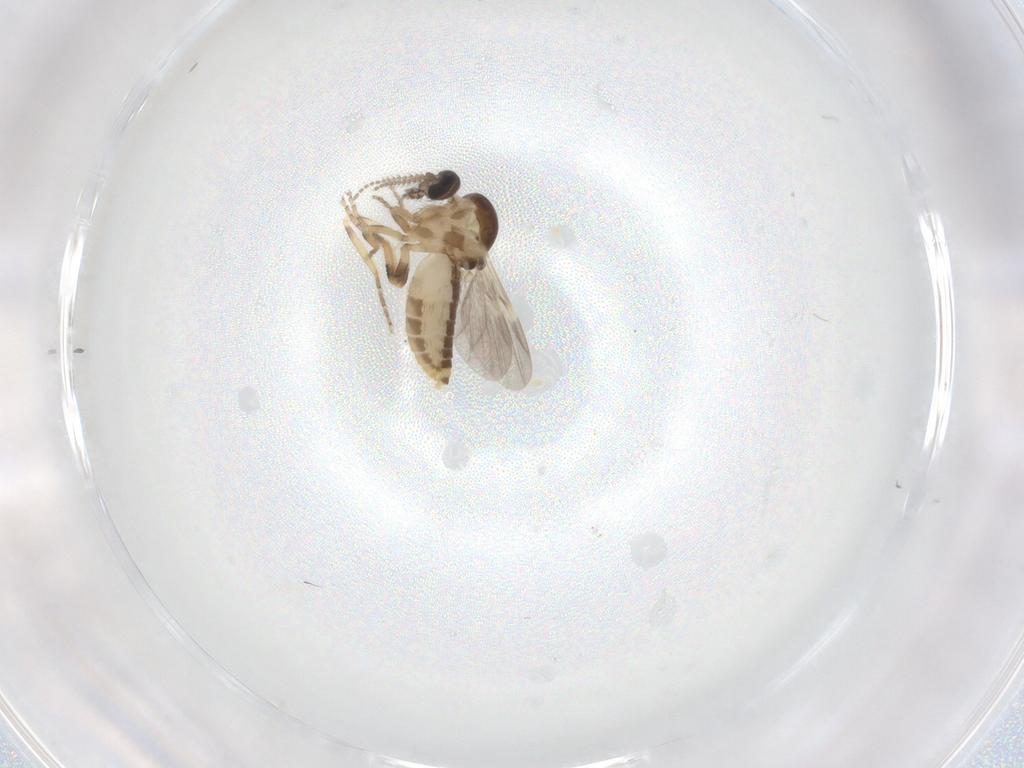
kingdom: Animalia
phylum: Arthropoda
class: Insecta
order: Diptera
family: Ceratopogonidae
